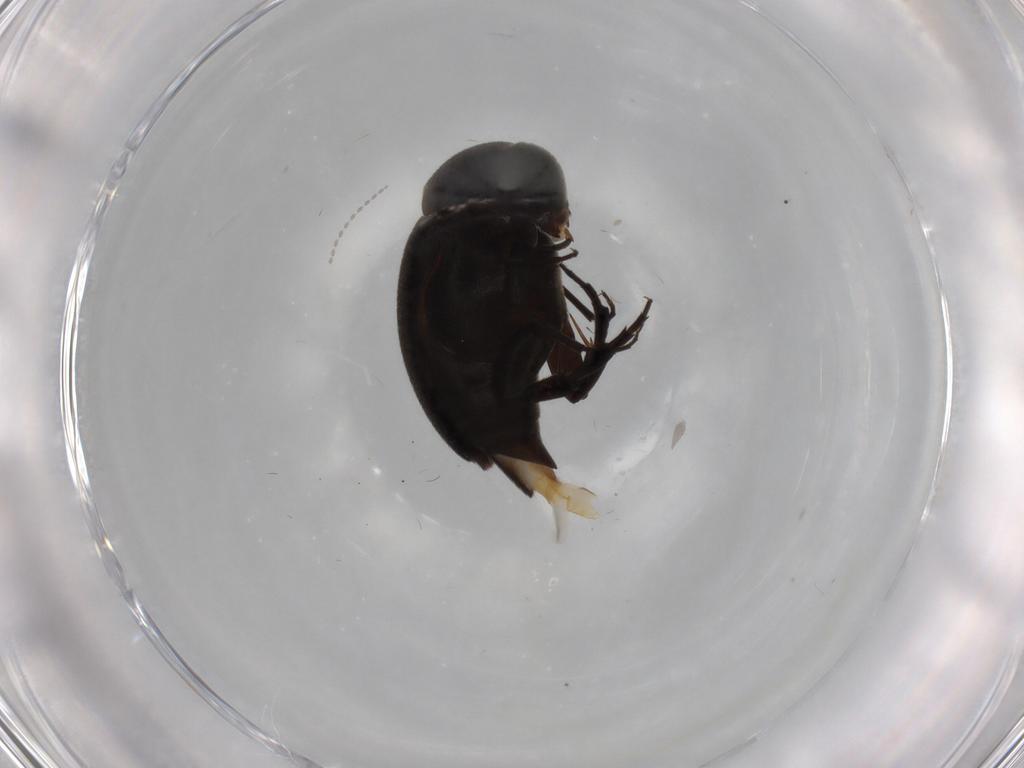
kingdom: Animalia
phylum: Arthropoda
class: Insecta
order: Coleoptera
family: Mordellidae
